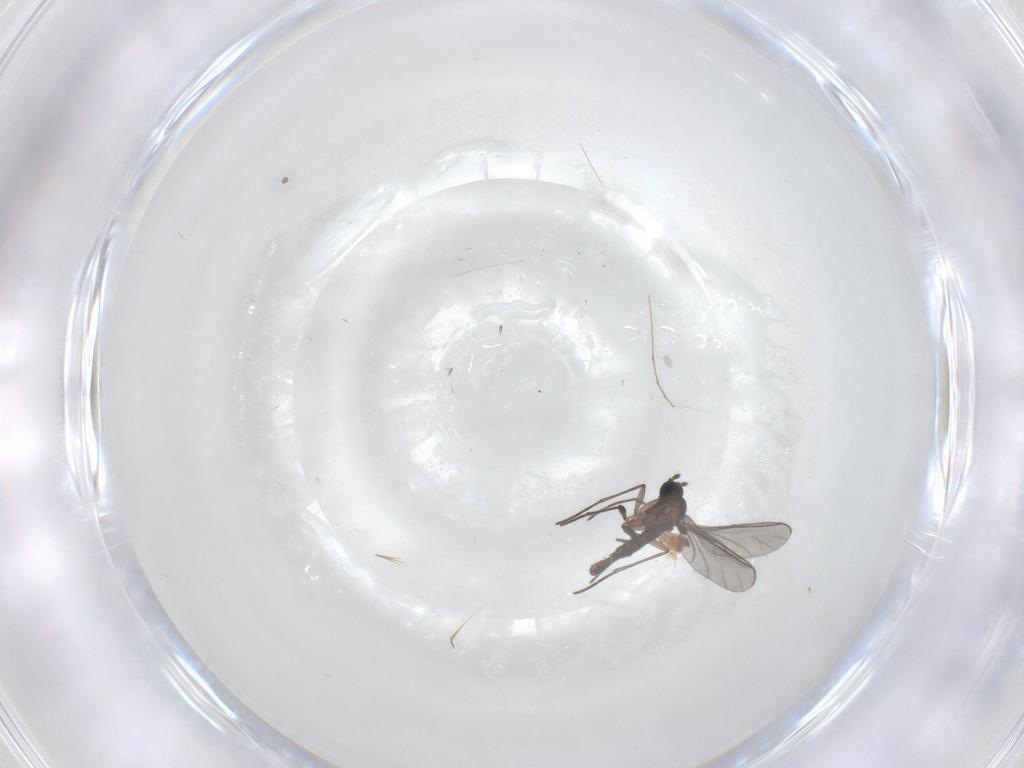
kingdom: Animalia
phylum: Arthropoda
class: Insecta
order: Diptera
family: Cecidomyiidae
